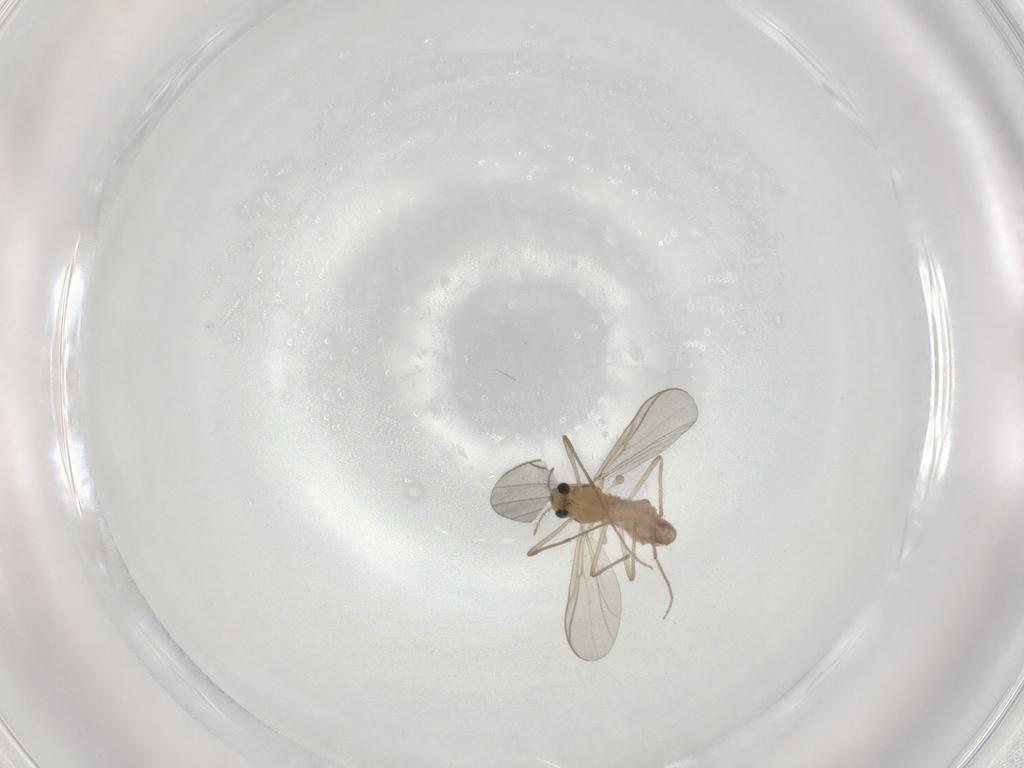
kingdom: Animalia
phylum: Arthropoda
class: Insecta
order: Diptera
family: Chironomidae
